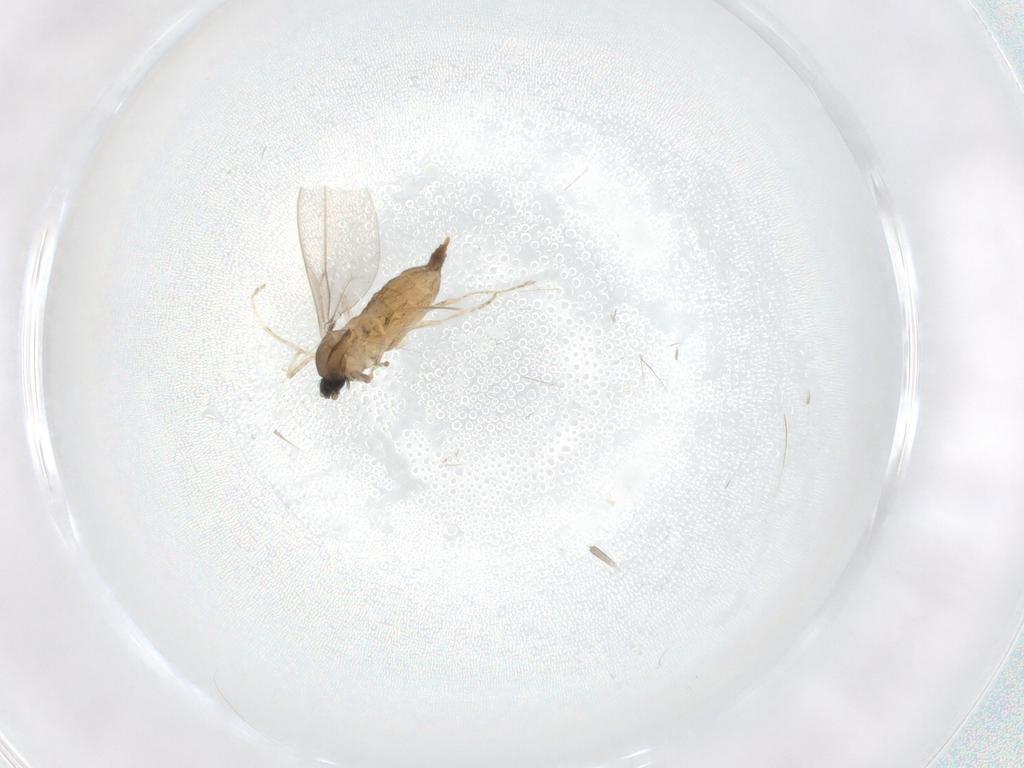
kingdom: Animalia
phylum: Arthropoda
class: Insecta
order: Diptera
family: Cecidomyiidae
